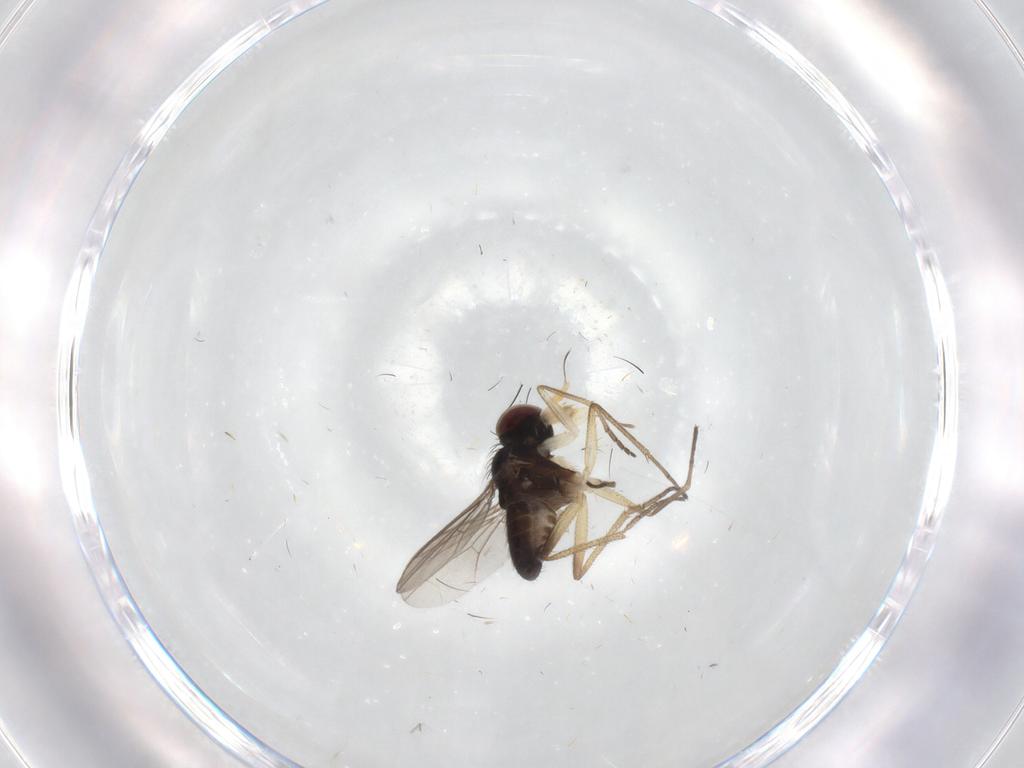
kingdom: Animalia
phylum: Arthropoda
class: Insecta
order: Diptera
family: Dolichopodidae
